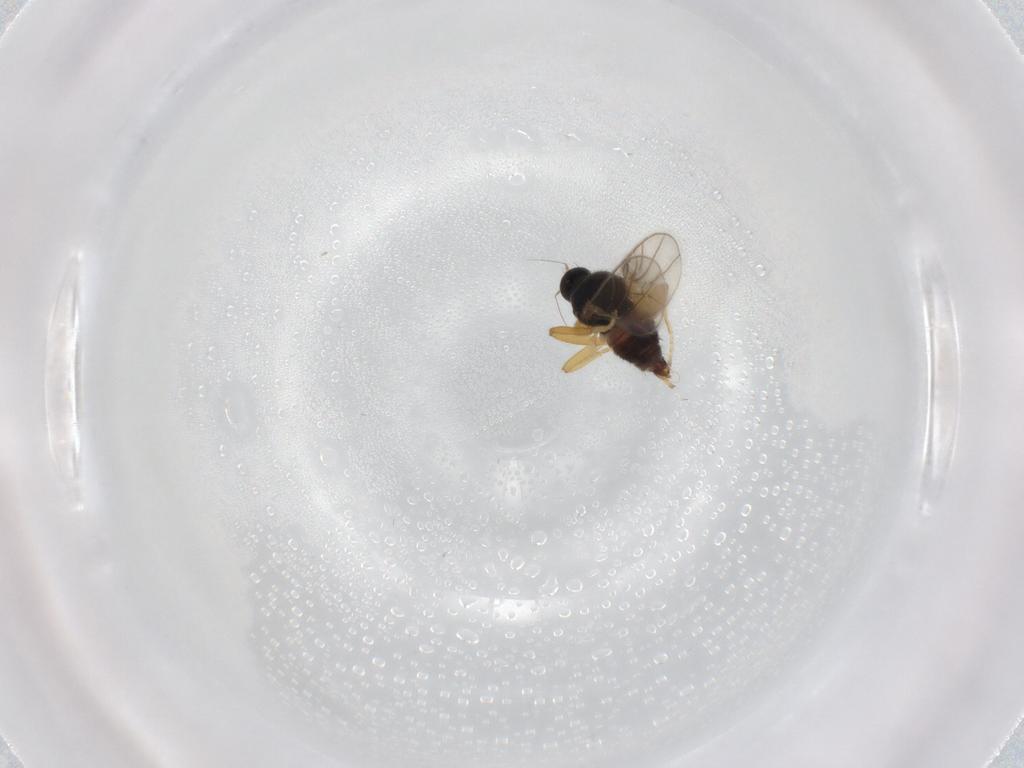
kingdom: Animalia
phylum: Arthropoda
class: Insecta
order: Diptera
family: Hybotidae
